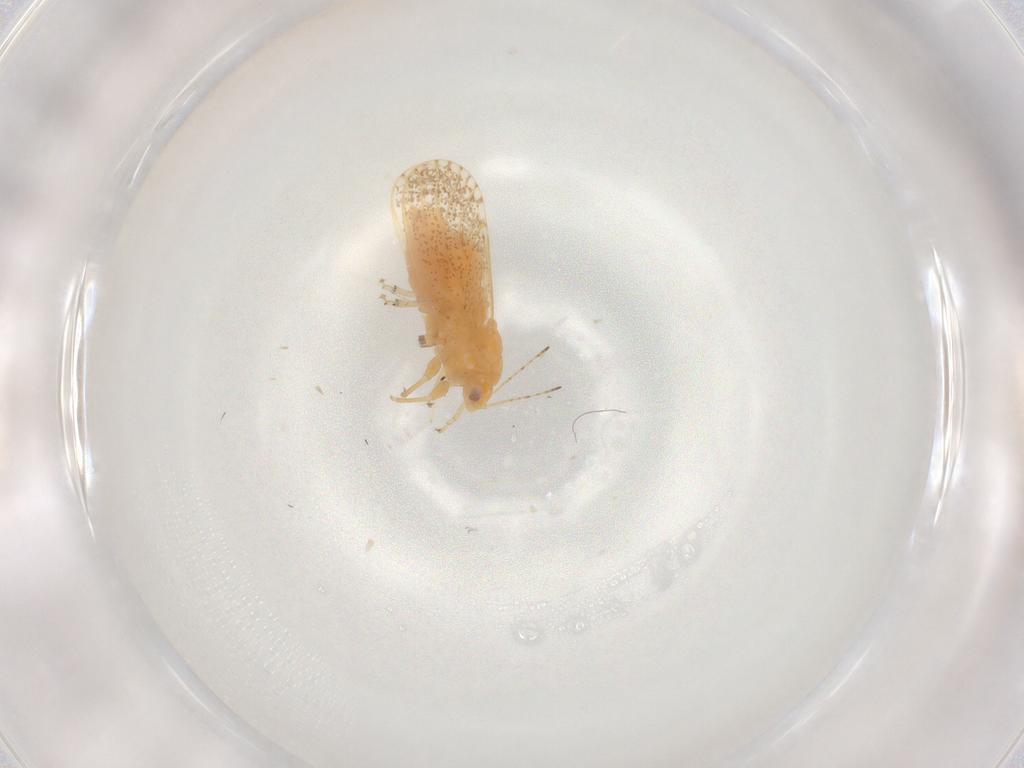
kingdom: Animalia
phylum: Arthropoda
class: Insecta
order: Hemiptera
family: Psyllidae
